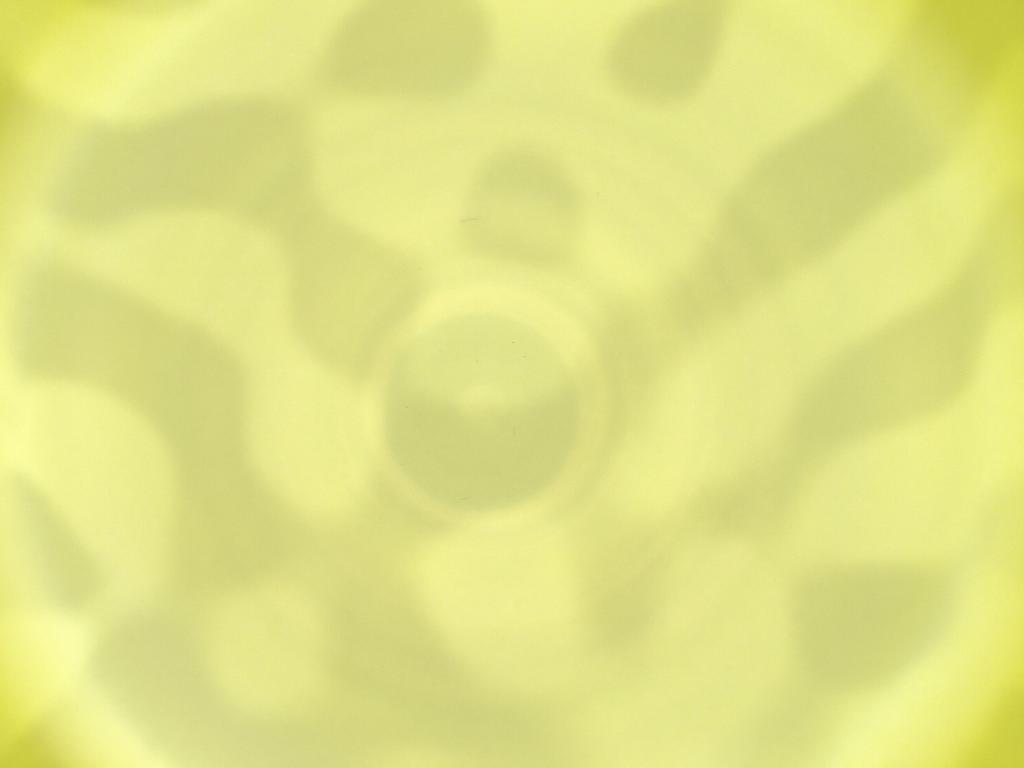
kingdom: Animalia
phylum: Arthropoda
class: Insecta
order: Diptera
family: Cecidomyiidae
